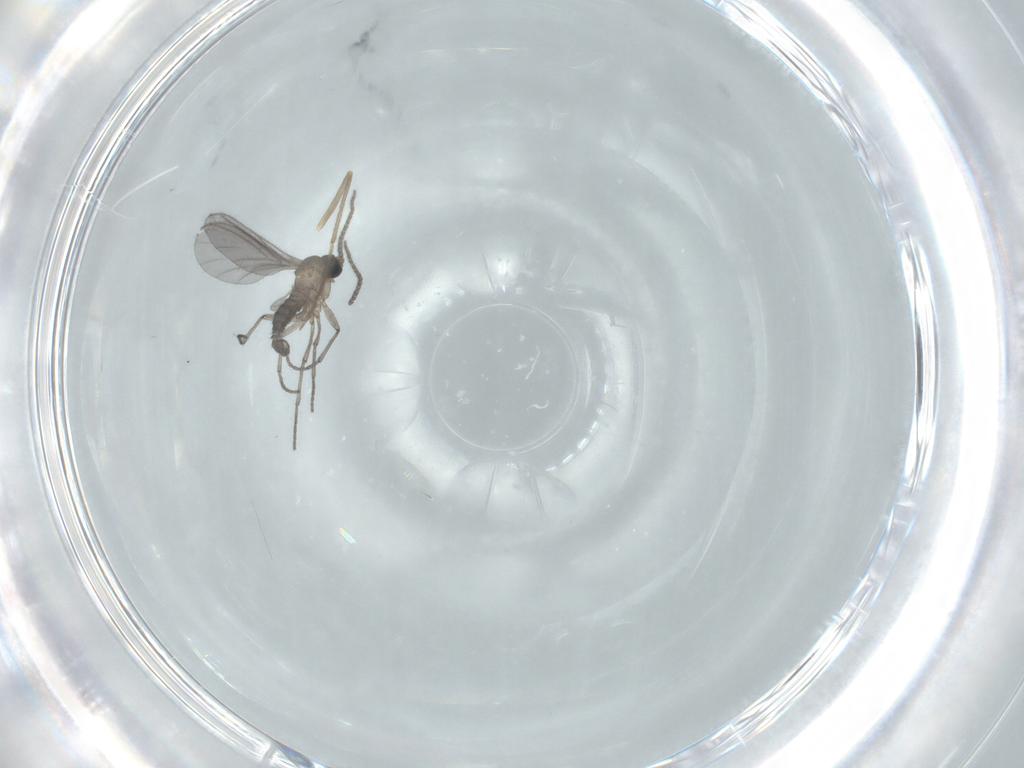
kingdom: Animalia
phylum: Arthropoda
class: Insecta
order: Diptera
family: Sciaridae
